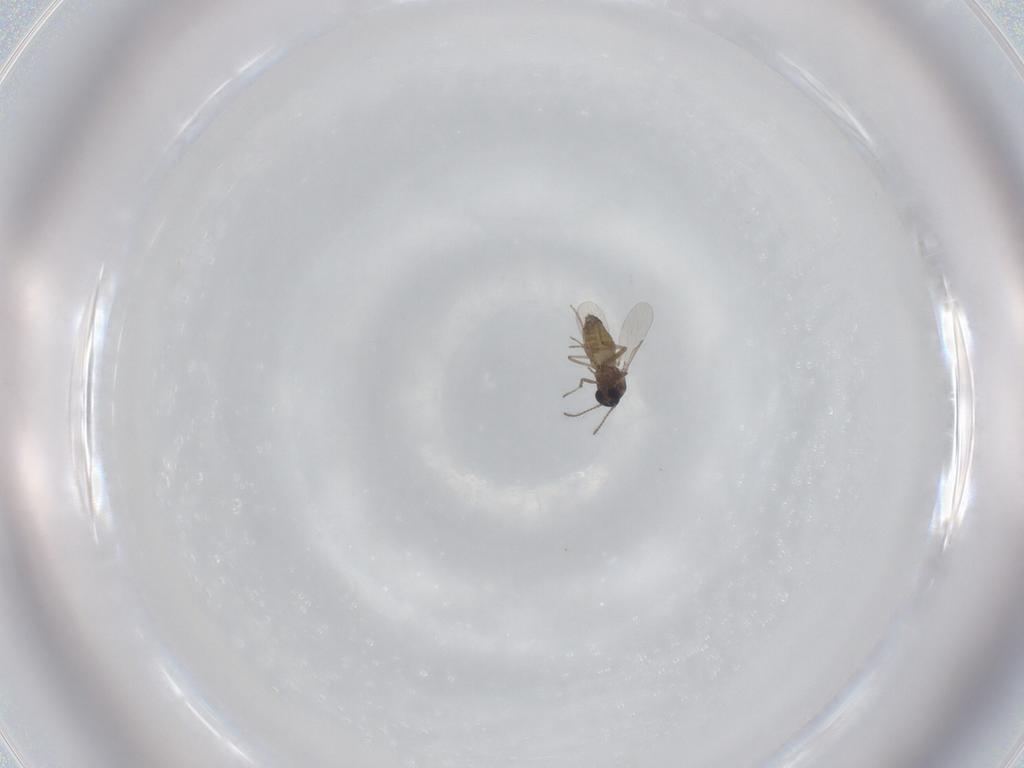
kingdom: Animalia
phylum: Arthropoda
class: Insecta
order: Diptera
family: Ceratopogonidae
